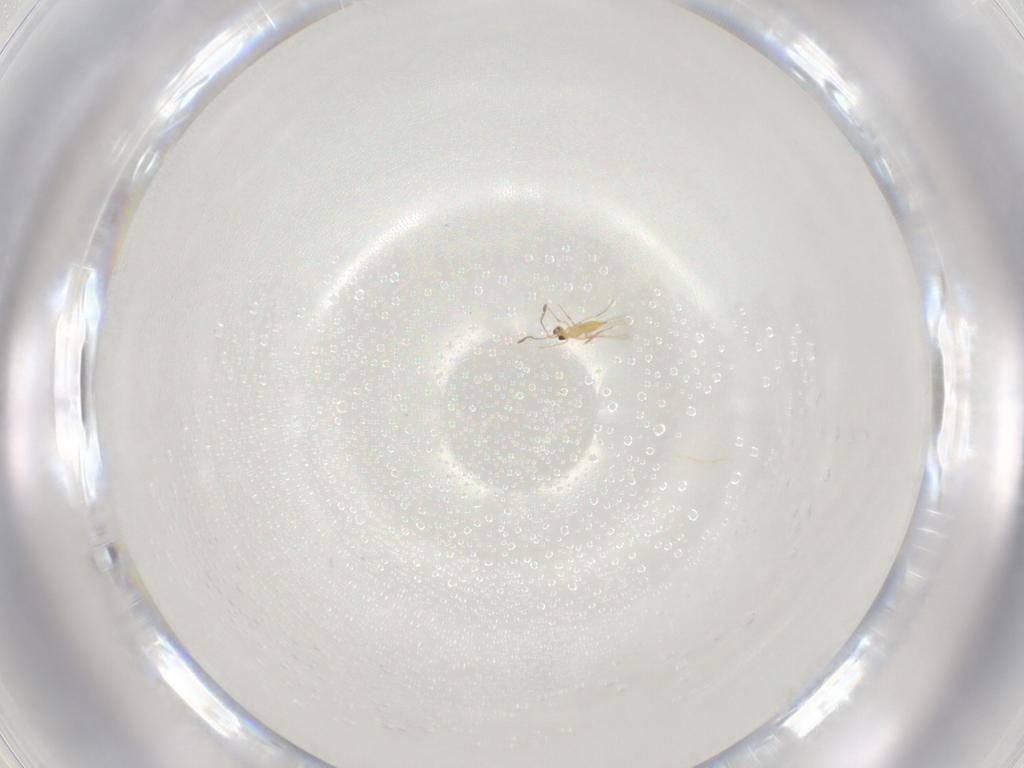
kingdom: Animalia
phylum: Arthropoda
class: Insecta
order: Hymenoptera
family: Mymaridae
